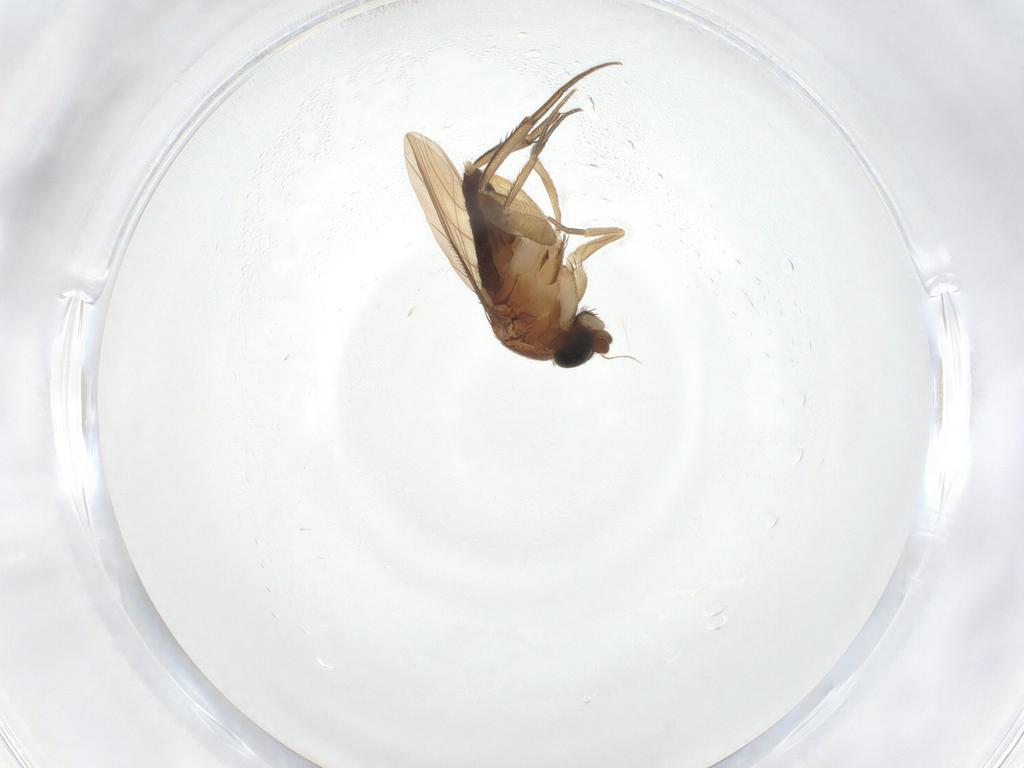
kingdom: Animalia
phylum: Arthropoda
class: Insecta
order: Diptera
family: Phoridae
